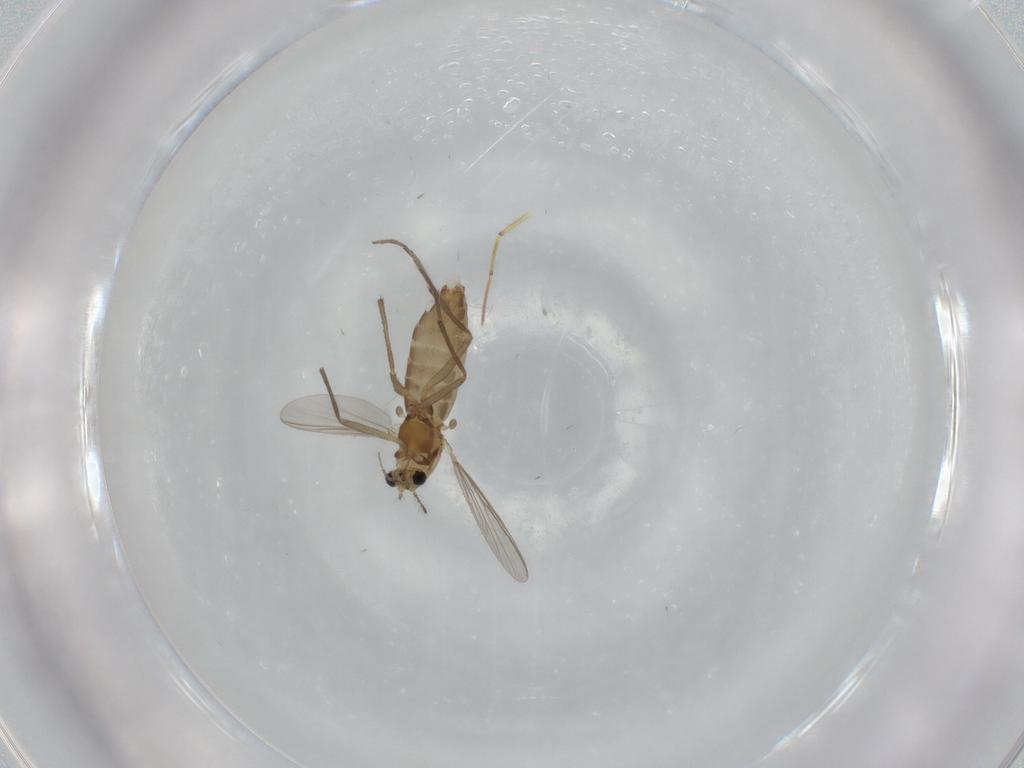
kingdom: Animalia
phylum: Arthropoda
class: Insecta
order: Diptera
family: Chironomidae
